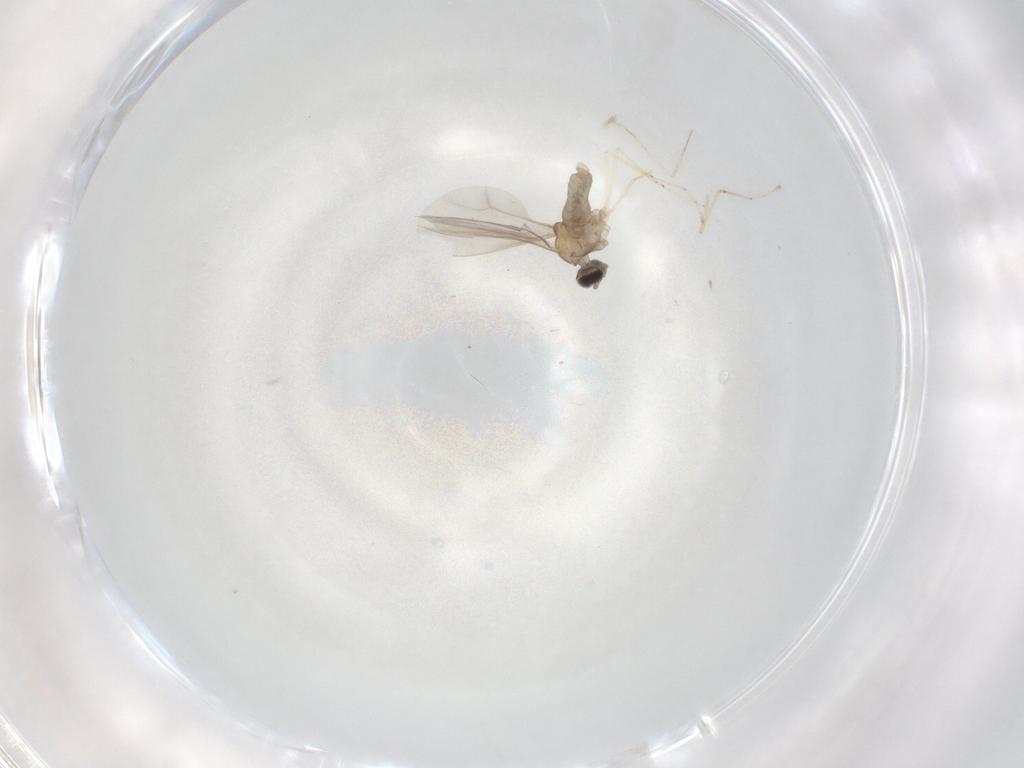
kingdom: Animalia
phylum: Arthropoda
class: Insecta
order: Diptera
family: Cecidomyiidae
